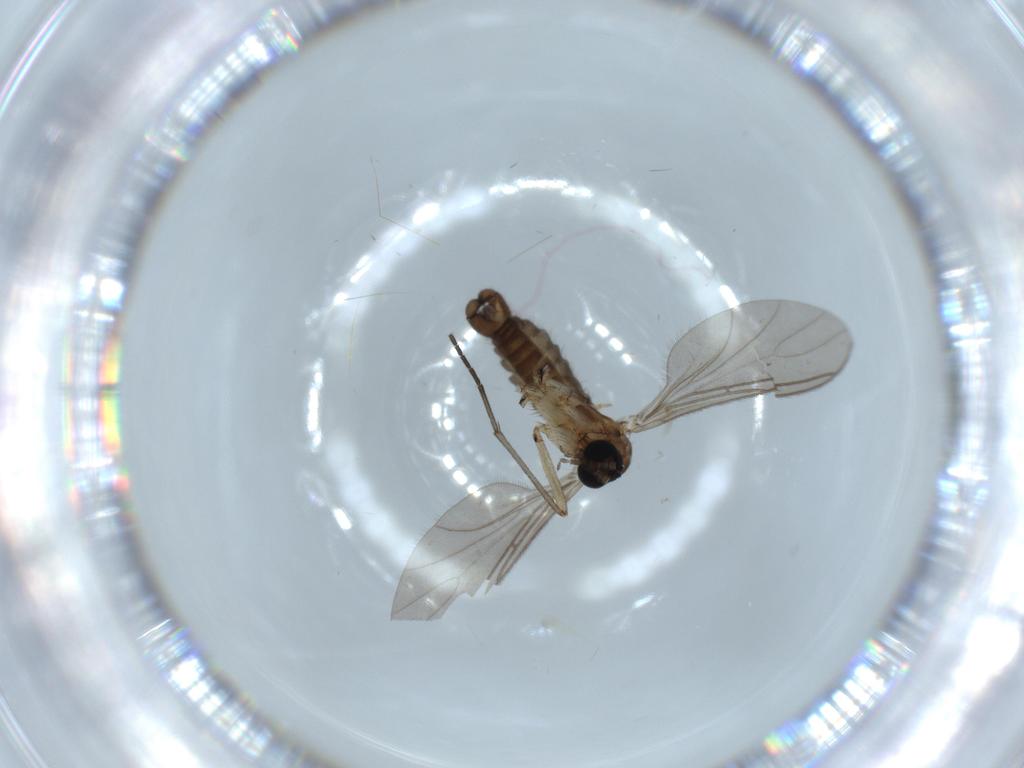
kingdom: Animalia
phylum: Arthropoda
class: Insecta
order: Diptera
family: Sciaridae
